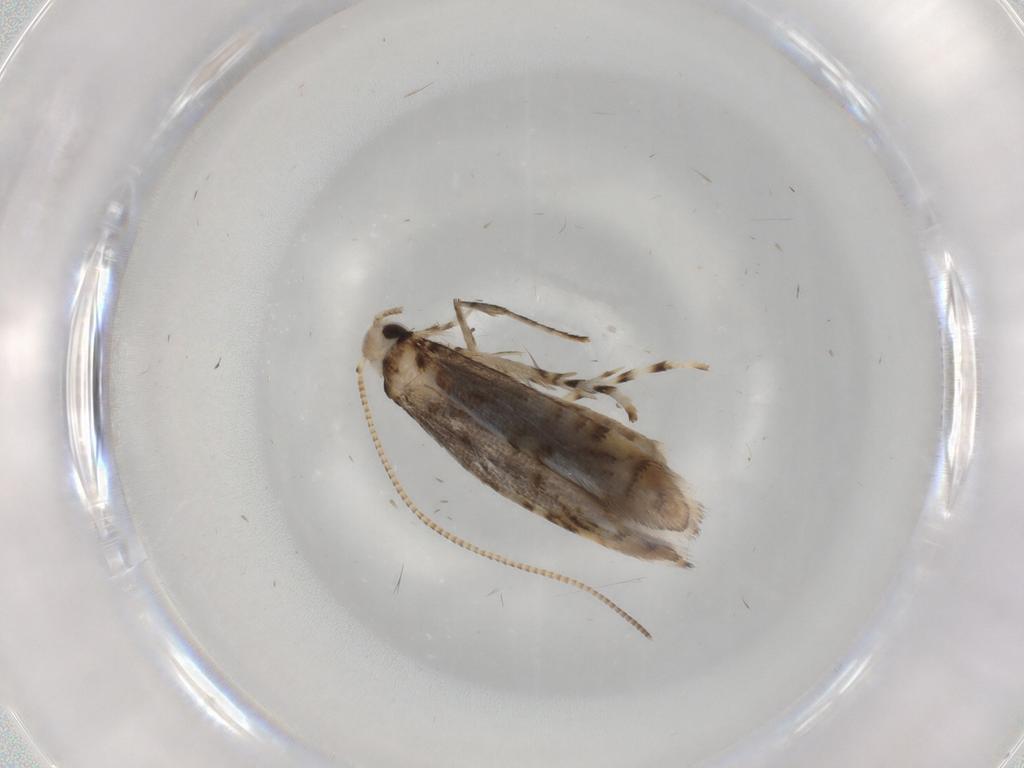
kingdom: Animalia
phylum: Arthropoda
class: Insecta
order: Lepidoptera
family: Gracillariidae
